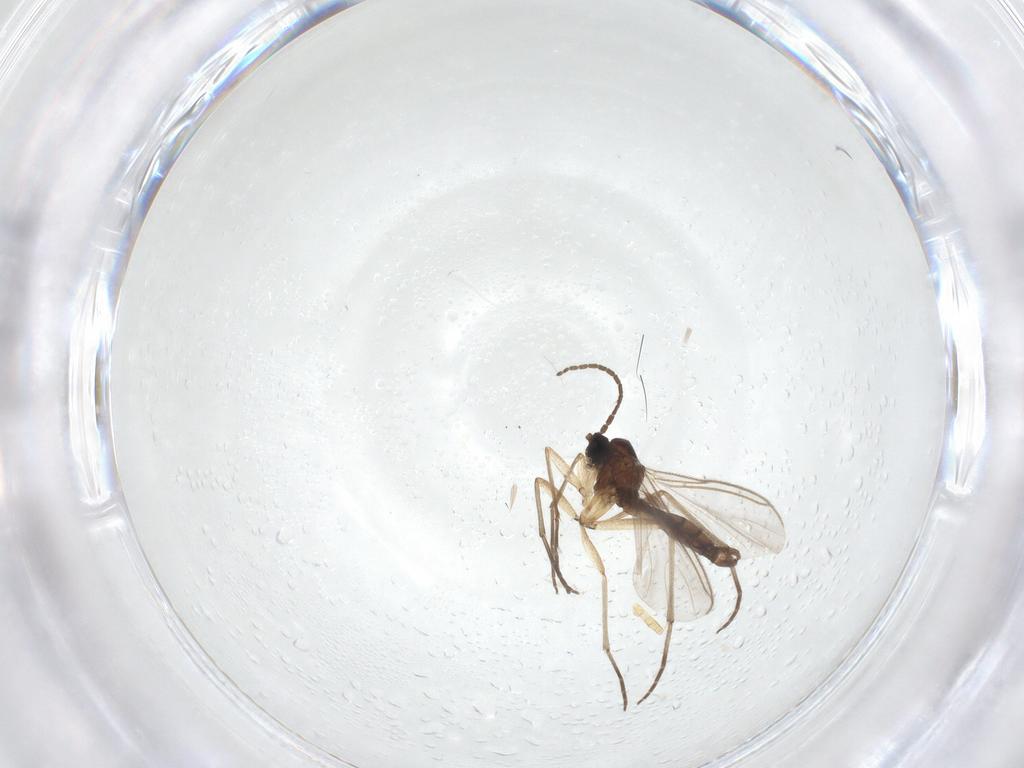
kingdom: Animalia
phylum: Arthropoda
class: Insecta
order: Diptera
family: Sciaridae
